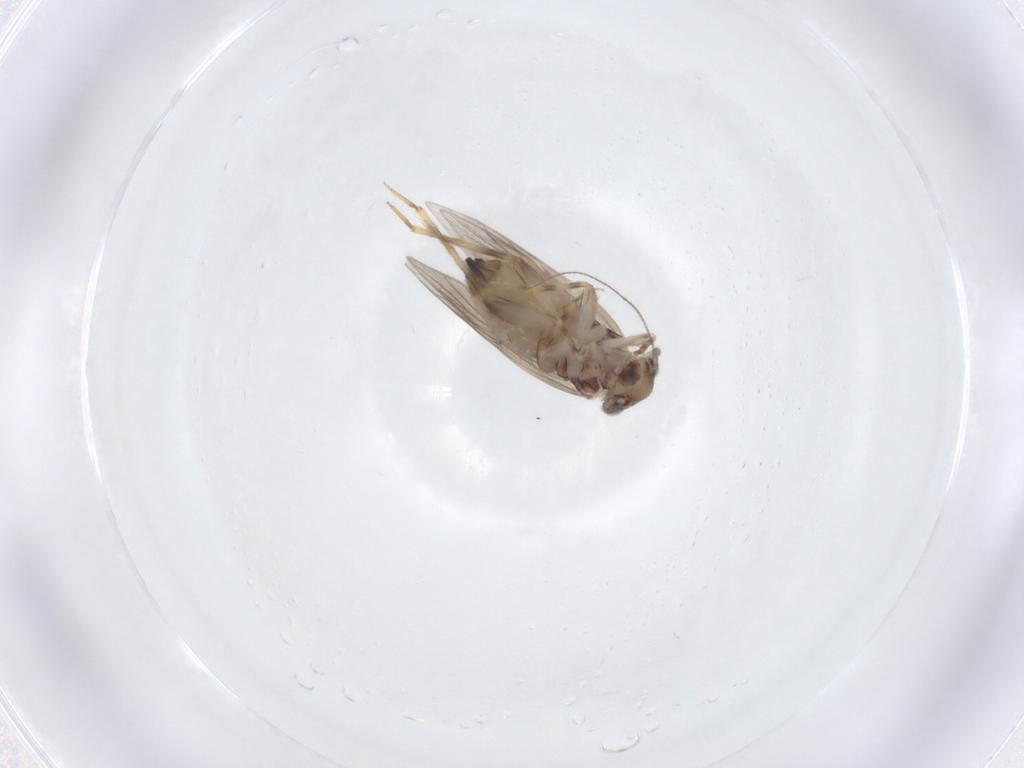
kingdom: Animalia
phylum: Arthropoda
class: Insecta
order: Psocodea
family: Lepidopsocidae
